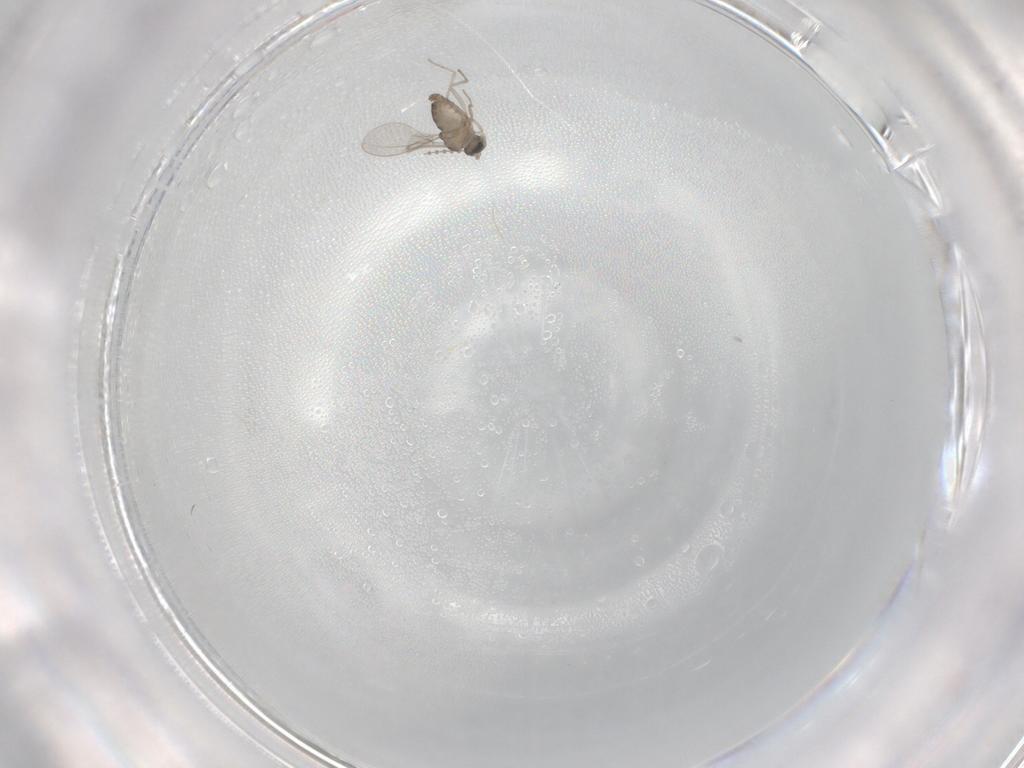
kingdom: Animalia
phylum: Arthropoda
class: Insecta
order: Diptera
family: Cecidomyiidae
